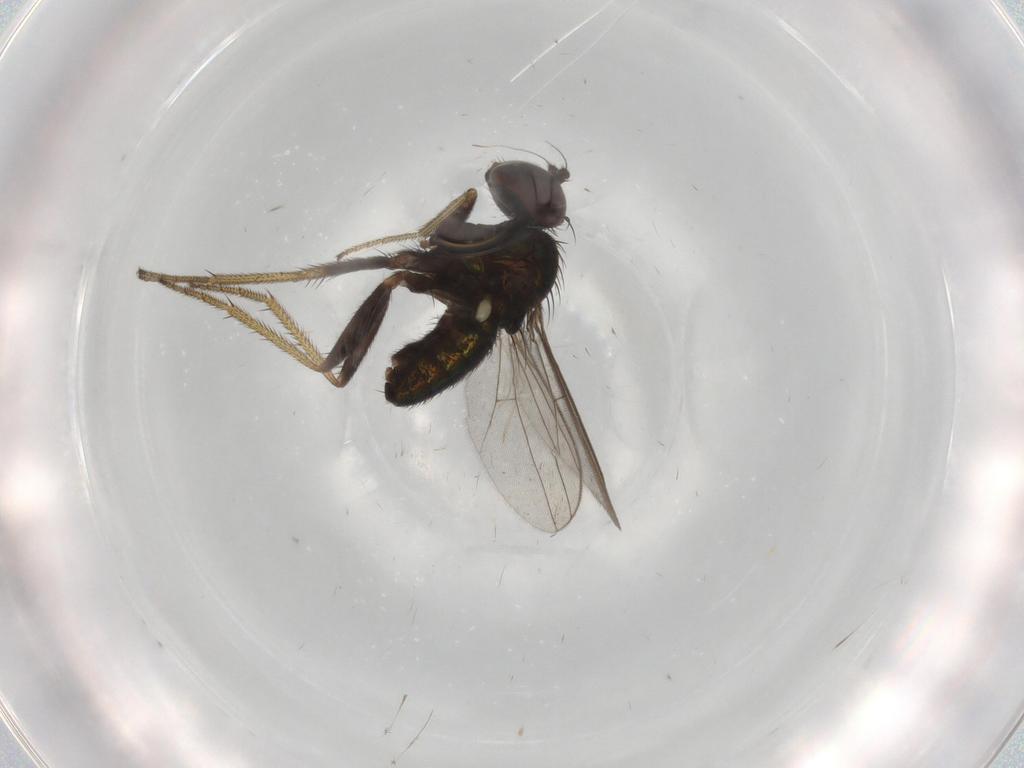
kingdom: Animalia
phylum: Arthropoda
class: Insecta
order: Diptera
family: Dolichopodidae
